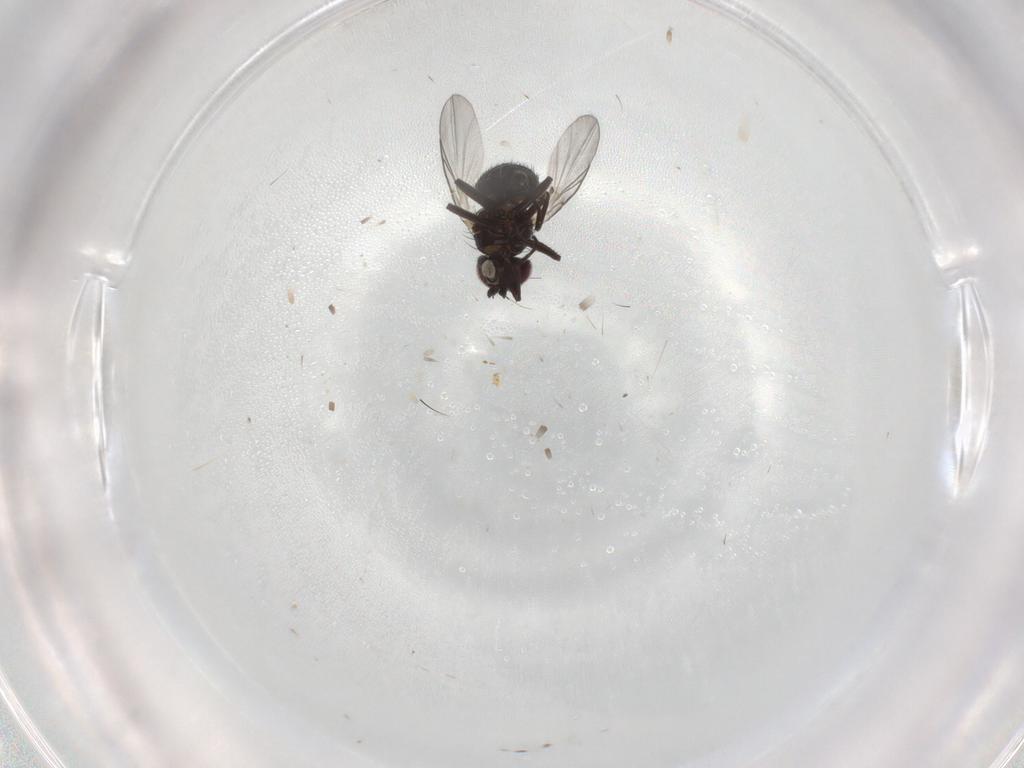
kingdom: Animalia
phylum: Arthropoda
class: Insecta
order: Diptera
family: Agromyzidae
